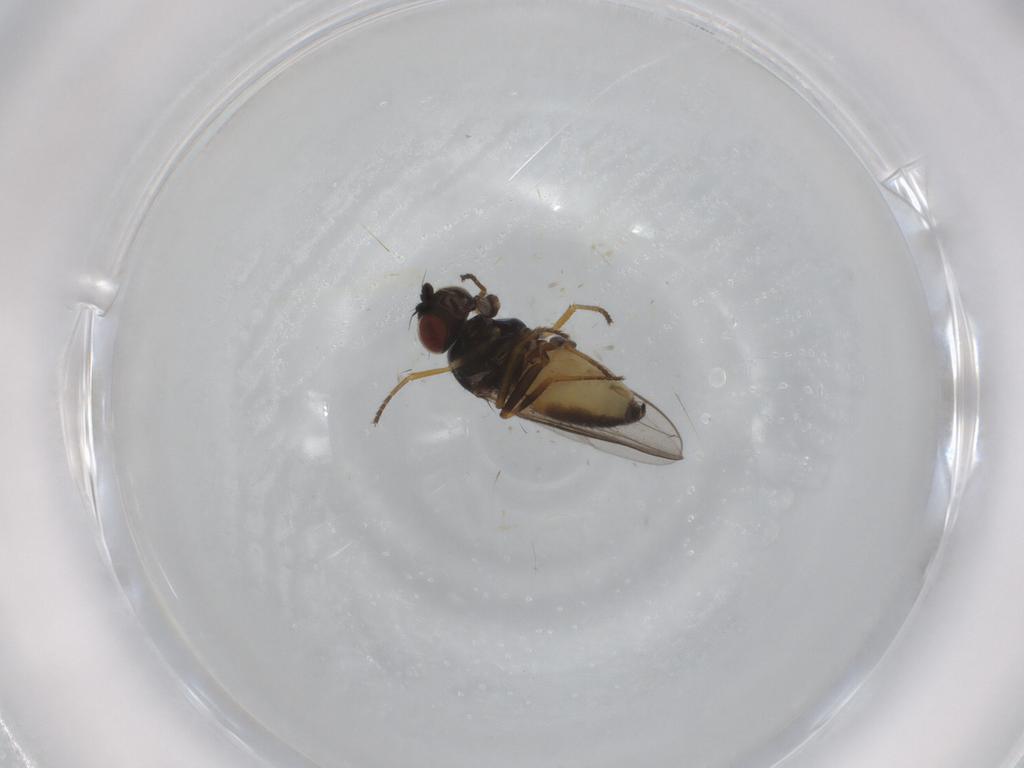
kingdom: Animalia
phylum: Arthropoda
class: Insecta
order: Diptera
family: Chloropidae
